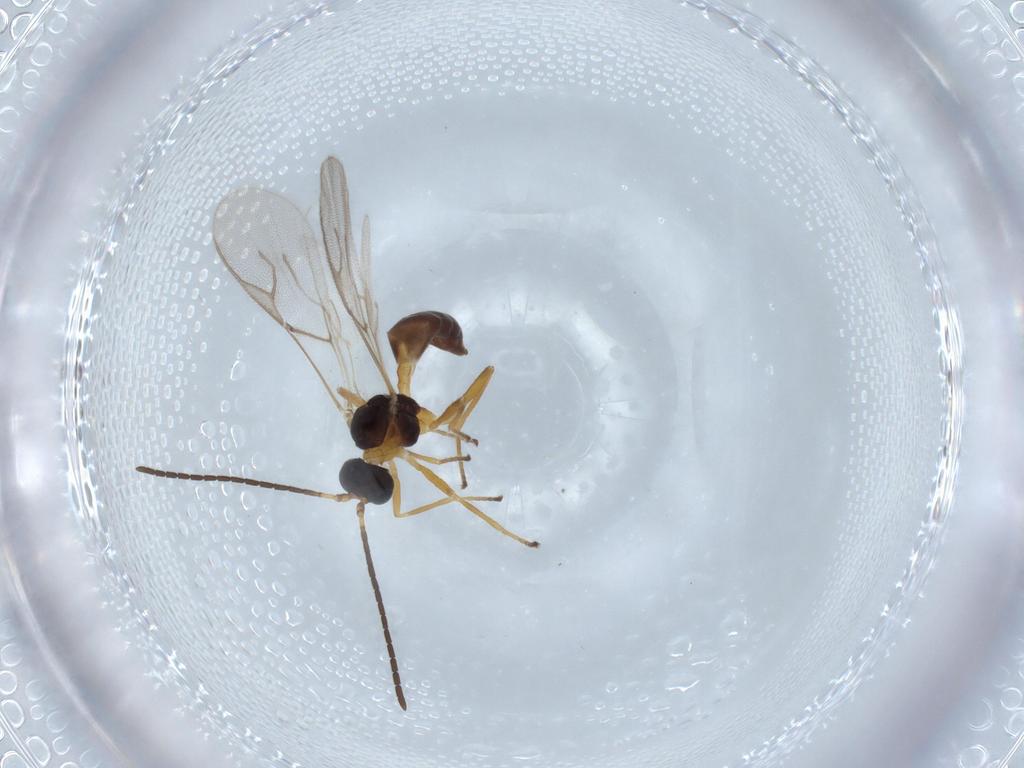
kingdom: Animalia
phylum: Arthropoda
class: Insecta
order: Hymenoptera
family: Braconidae
